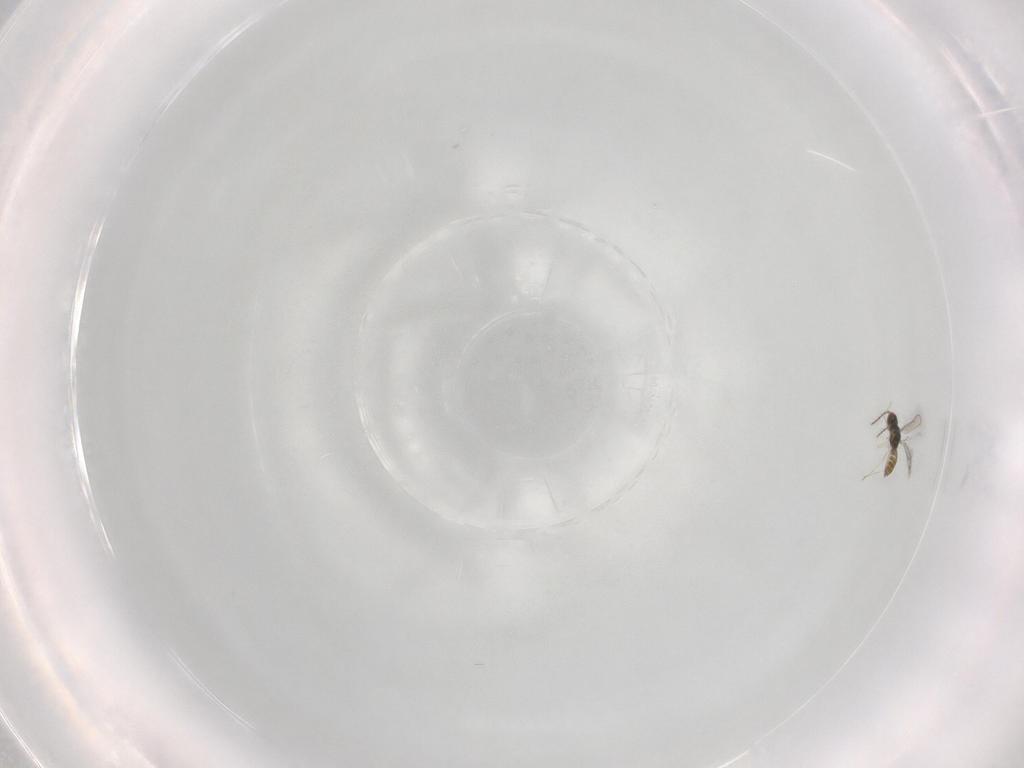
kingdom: Animalia
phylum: Arthropoda
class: Insecta
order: Hymenoptera
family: Eulophidae
